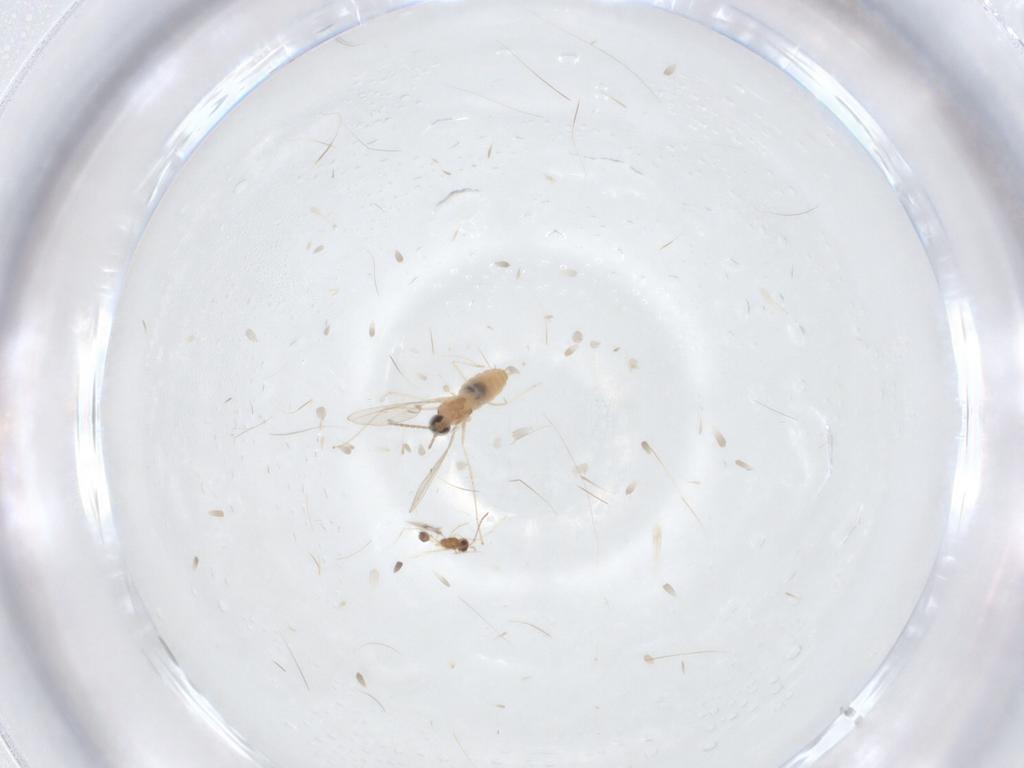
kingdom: Animalia
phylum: Arthropoda
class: Insecta
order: Diptera
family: Cecidomyiidae
